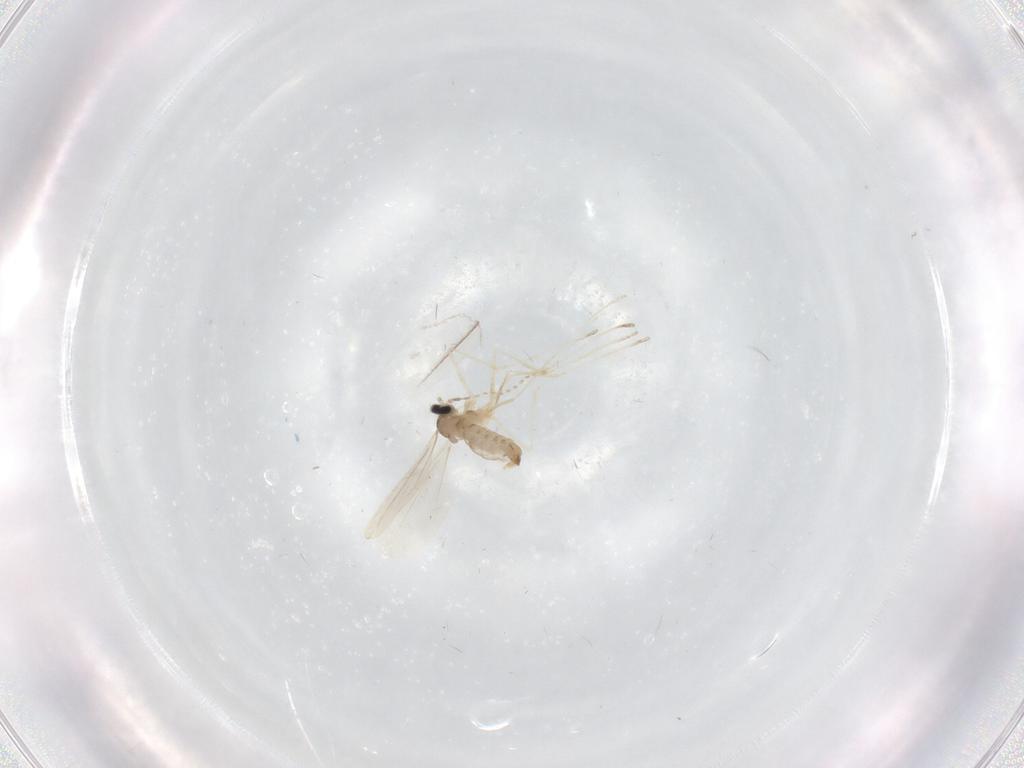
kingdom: Animalia
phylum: Arthropoda
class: Insecta
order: Diptera
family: Cecidomyiidae
